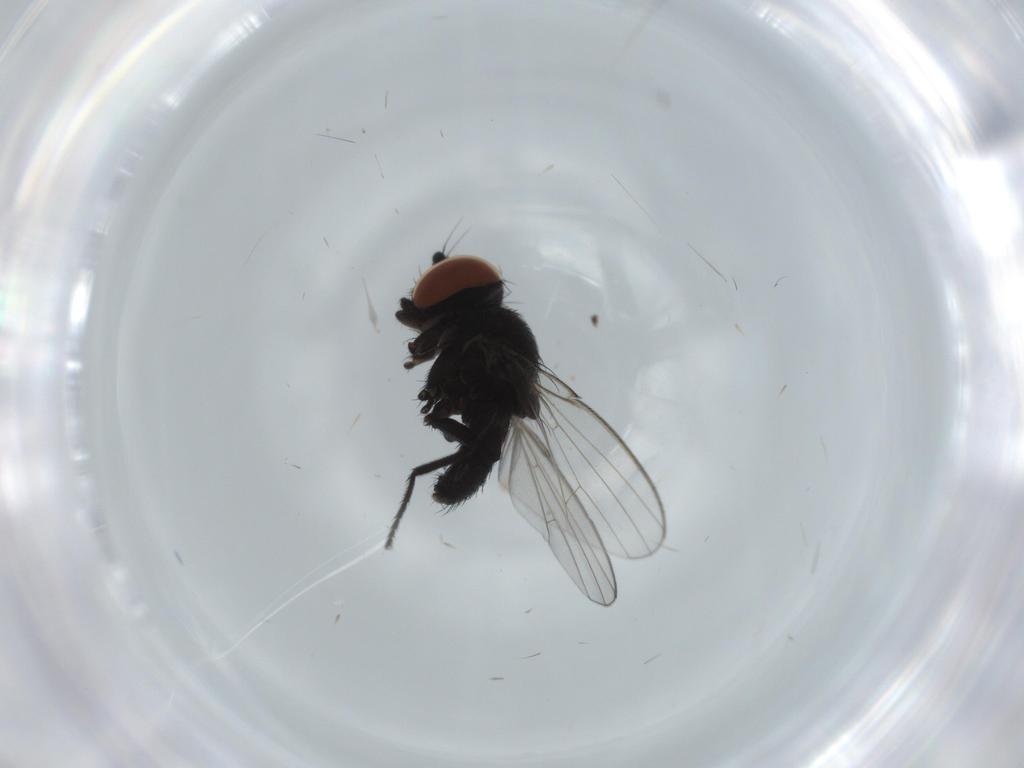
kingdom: Animalia
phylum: Arthropoda
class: Insecta
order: Diptera
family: Milichiidae
